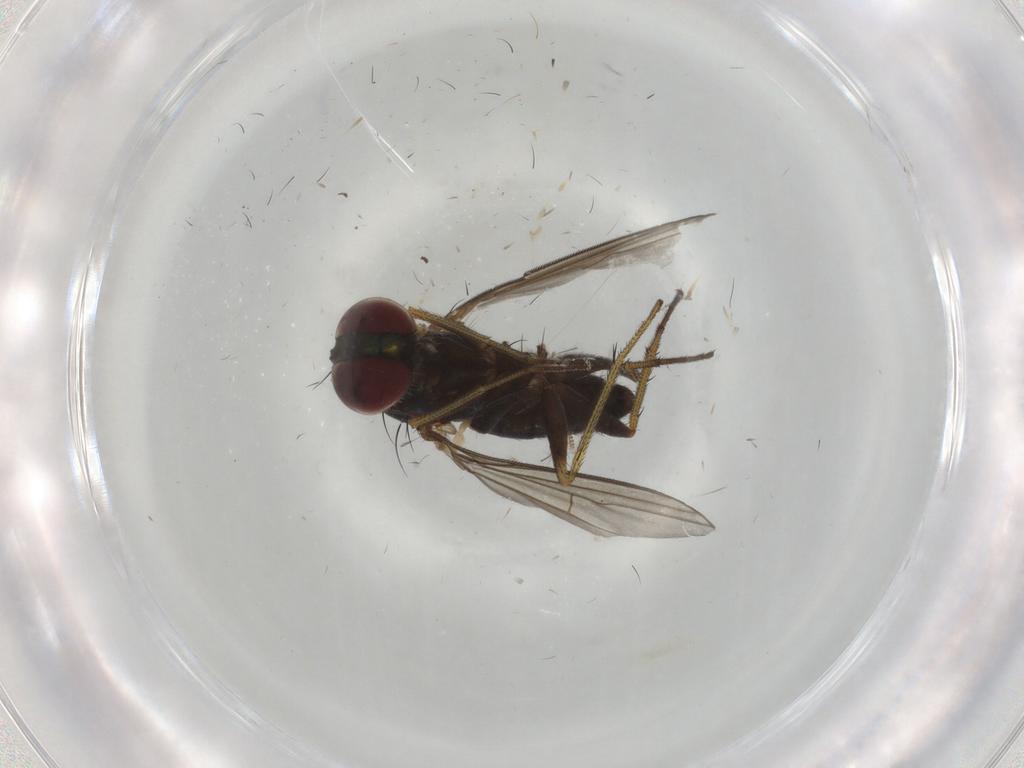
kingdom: Animalia
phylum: Arthropoda
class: Insecta
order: Diptera
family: Dolichopodidae
